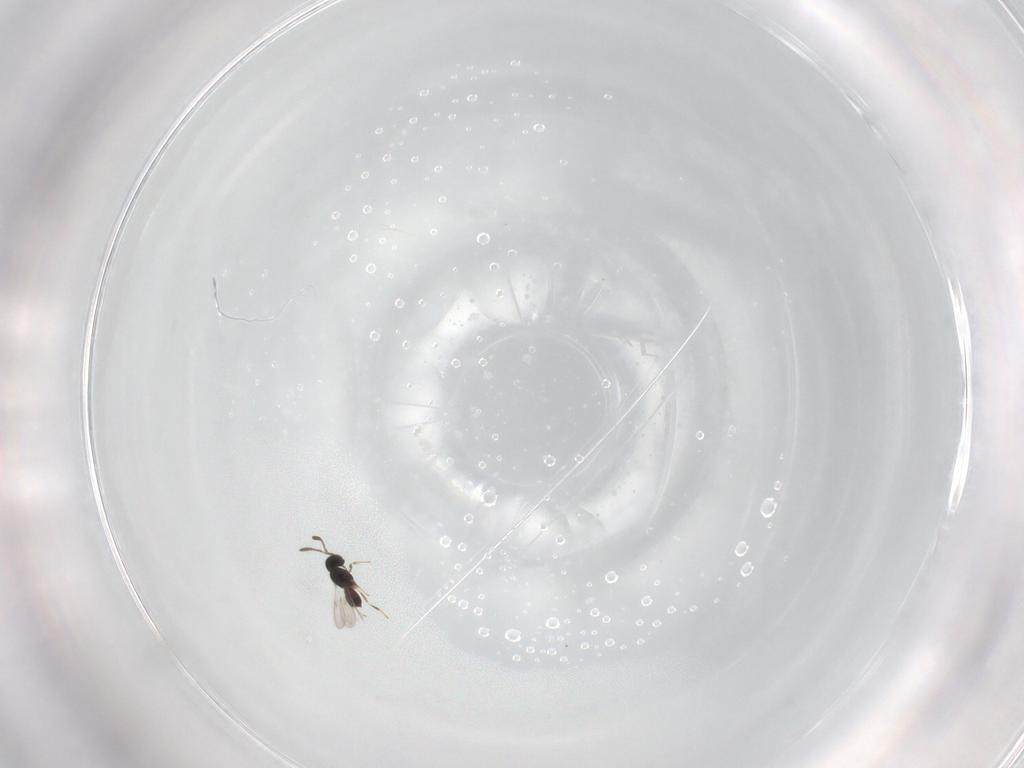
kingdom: Animalia
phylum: Arthropoda
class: Insecta
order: Hymenoptera
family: Scelionidae
